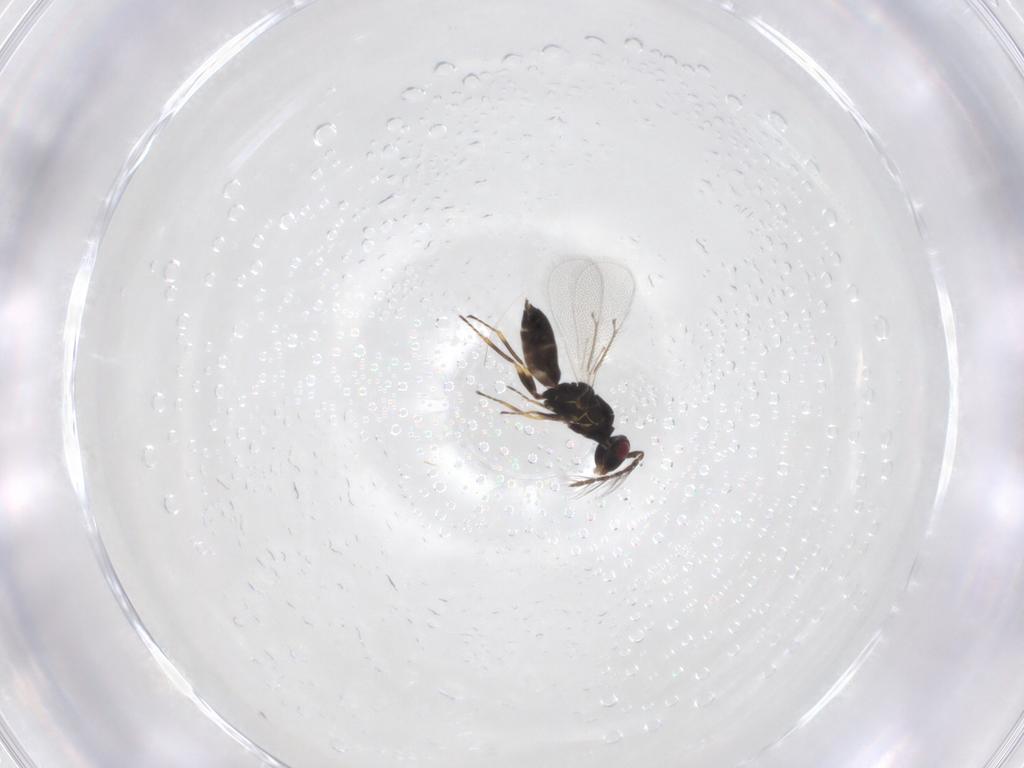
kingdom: Animalia
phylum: Arthropoda
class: Insecta
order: Hymenoptera
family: Eulophidae
